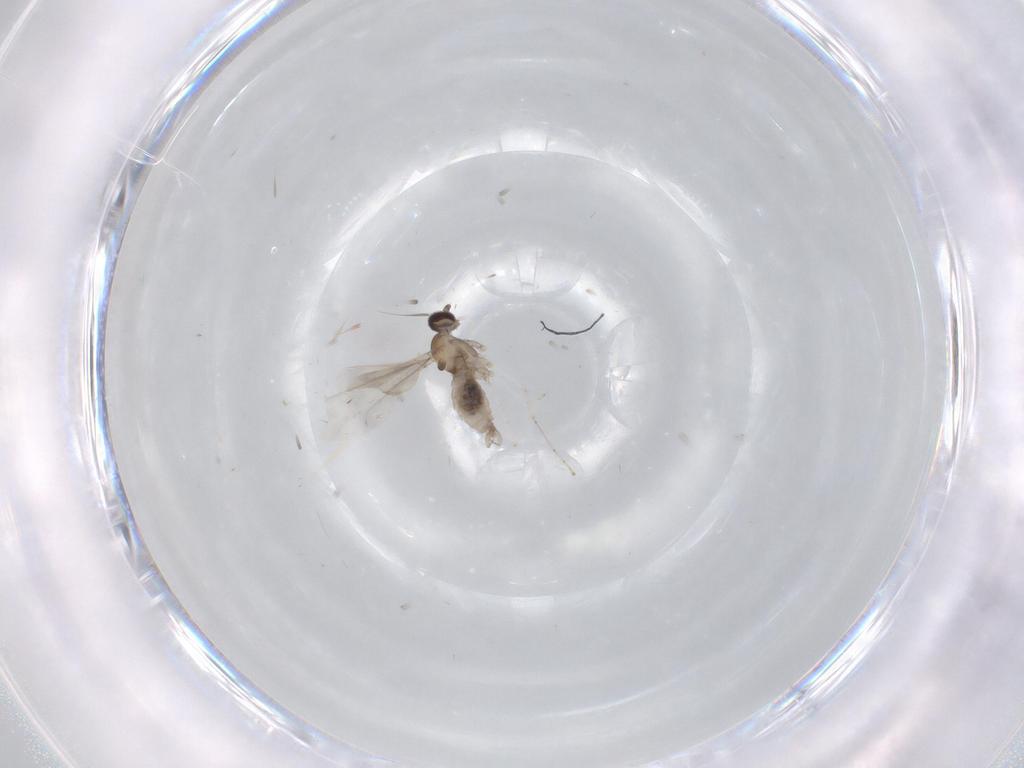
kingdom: Animalia
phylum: Arthropoda
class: Insecta
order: Diptera
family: Cecidomyiidae
